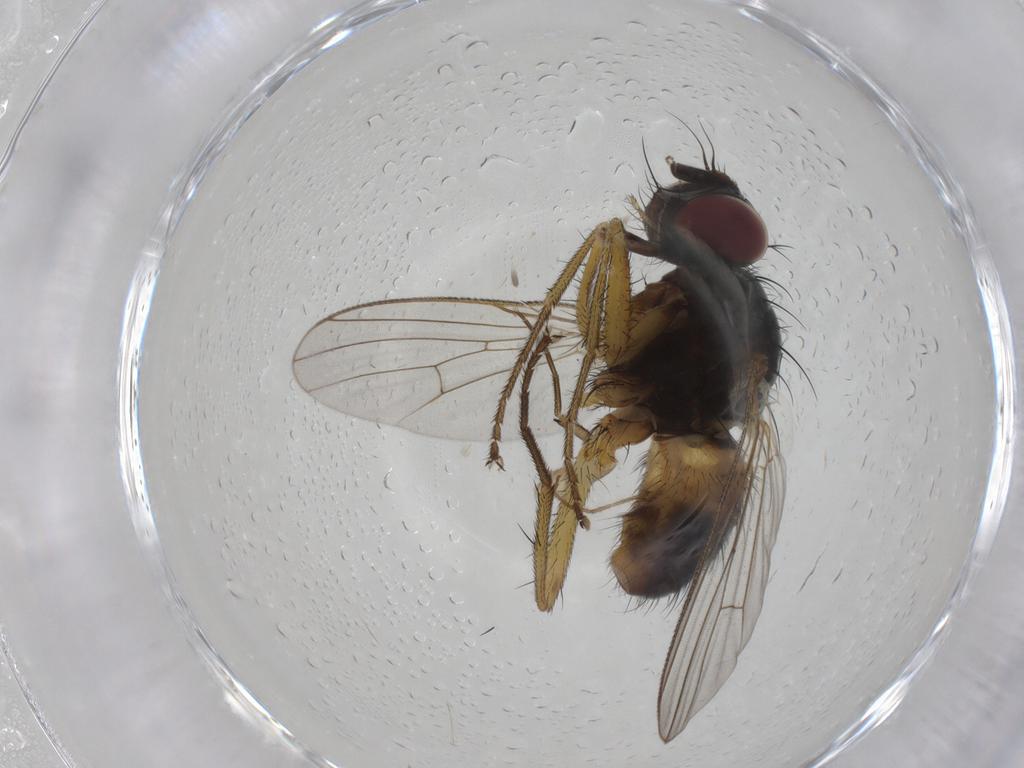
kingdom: Animalia
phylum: Arthropoda
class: Insecta
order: Diptera
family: Muscidae
